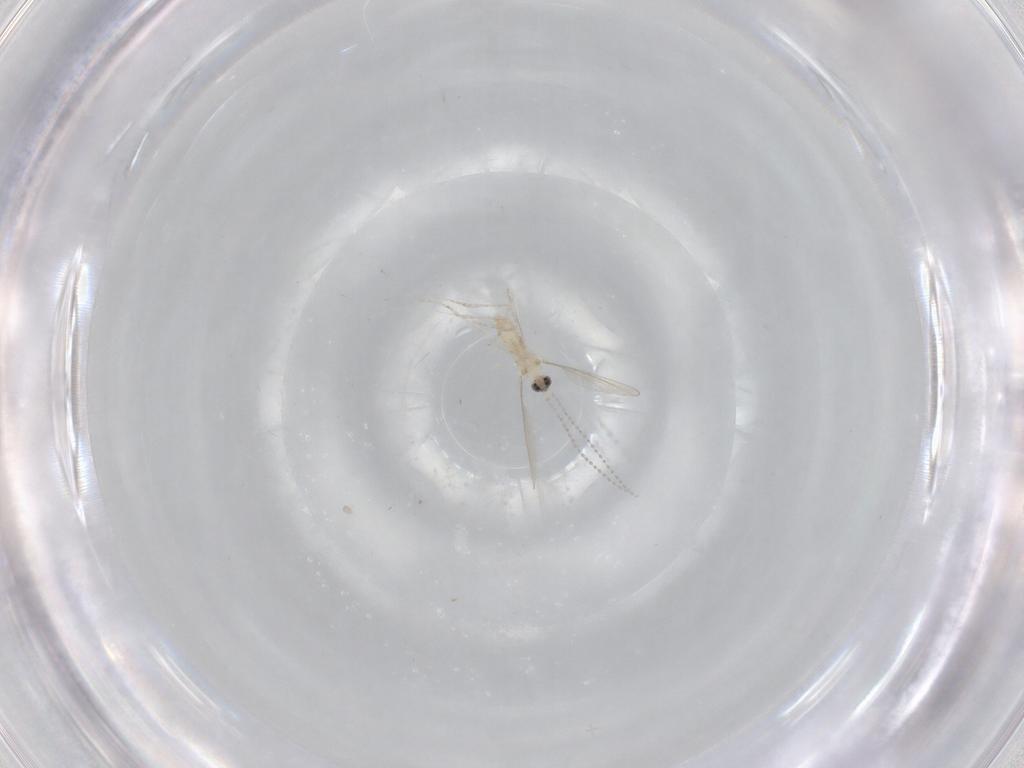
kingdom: Animalia
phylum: Arthropoda
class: Insecta
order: Diptera
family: Cecidomyiidae
